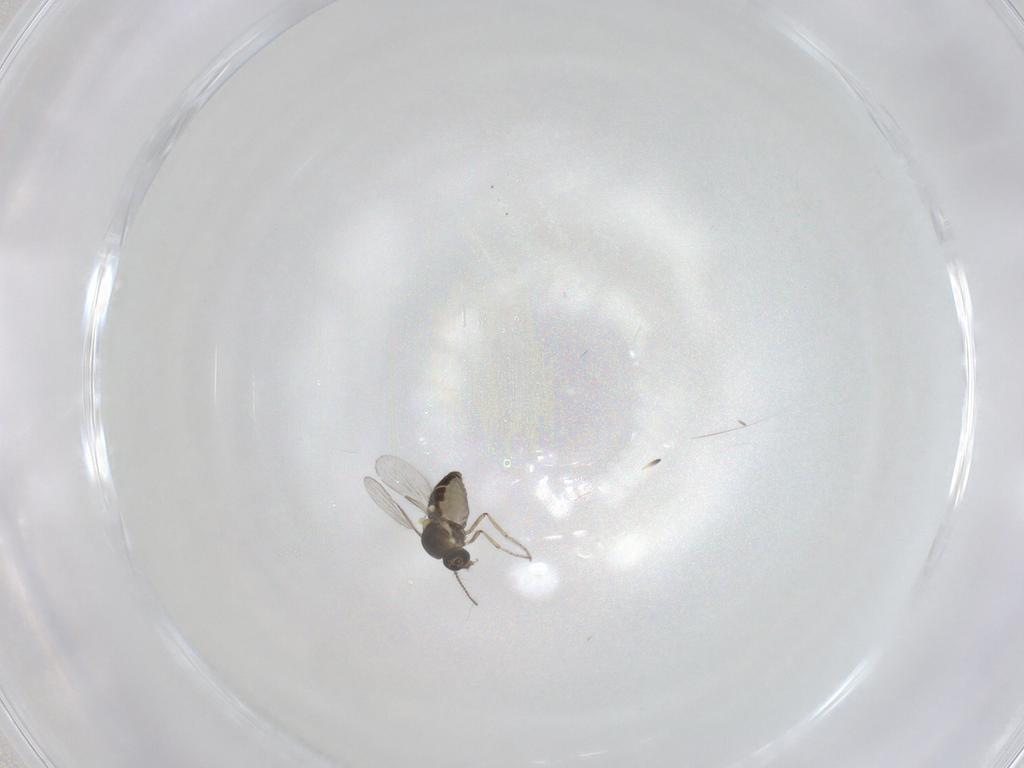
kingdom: Animalia
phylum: Arthropoda
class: Insecta
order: Diptera
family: Ceratopogonidae
